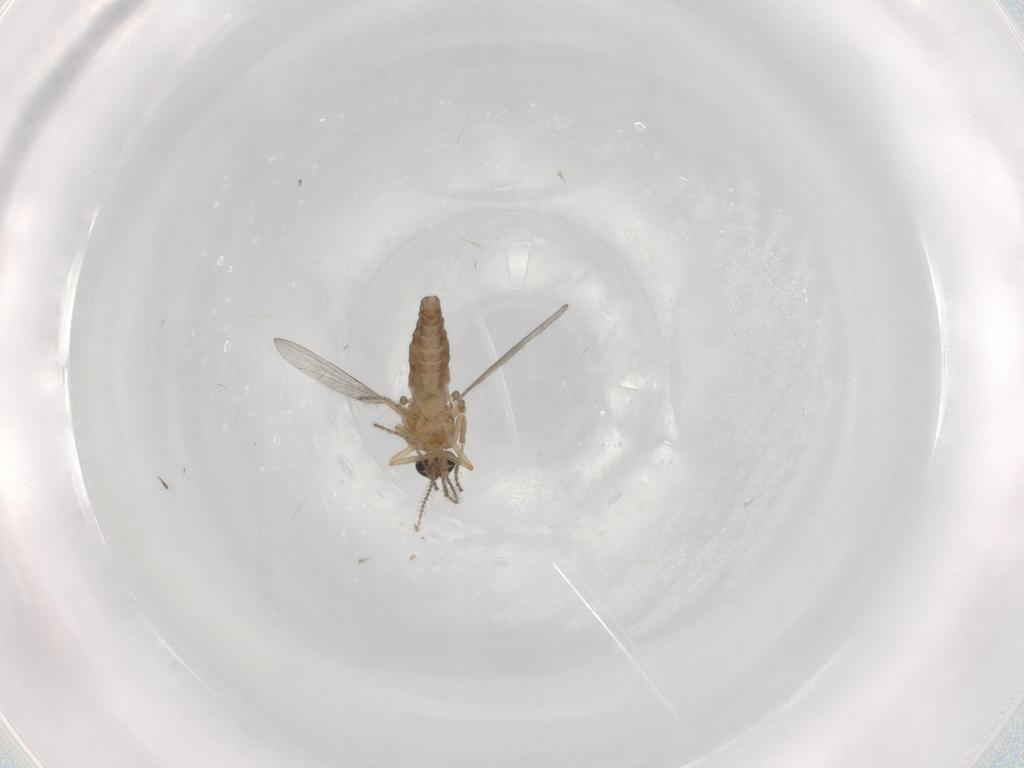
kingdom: Animalia
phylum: Arthropoda
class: Insecta
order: Diptera
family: Ceratopogonidae
